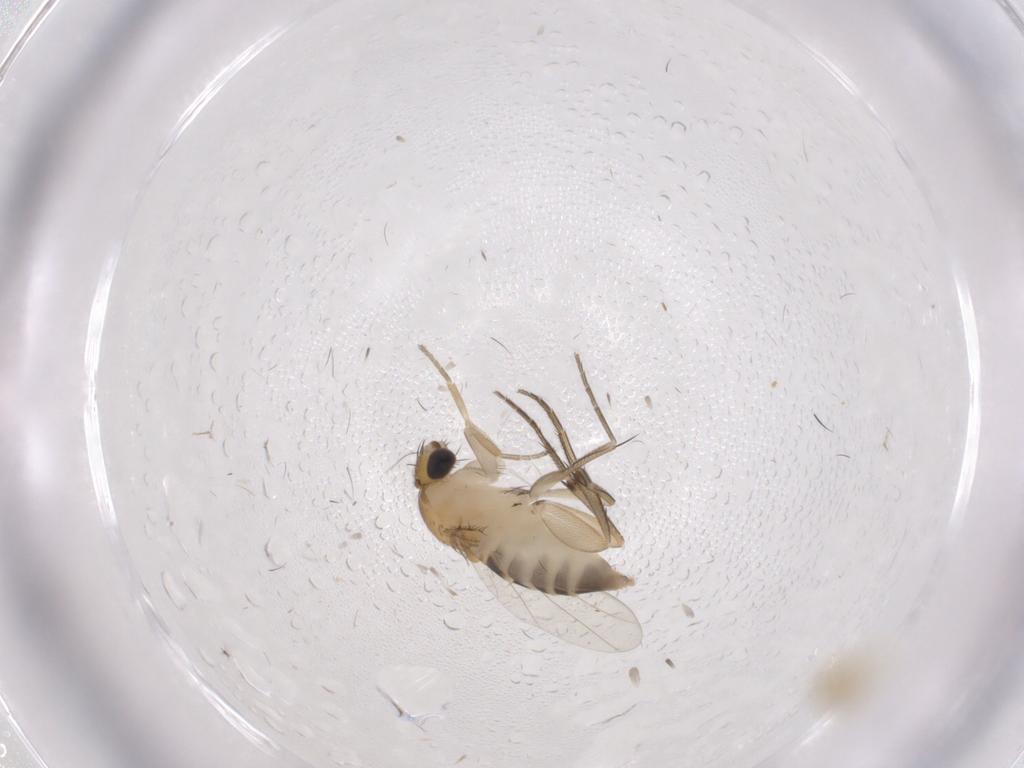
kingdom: Animalia
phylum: Arthropoda
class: Insecta
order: Diptera
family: Phoridae
